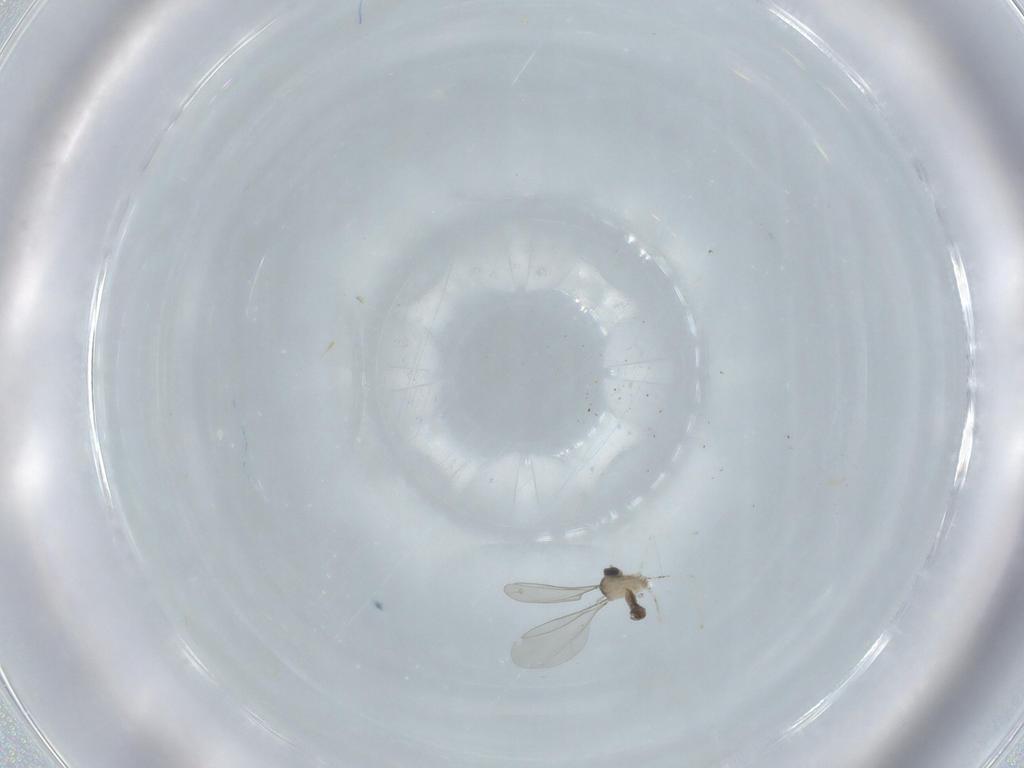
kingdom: Animalia
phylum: Arthropoda
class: Insecta
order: Diptera
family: Cecidomyiidae
